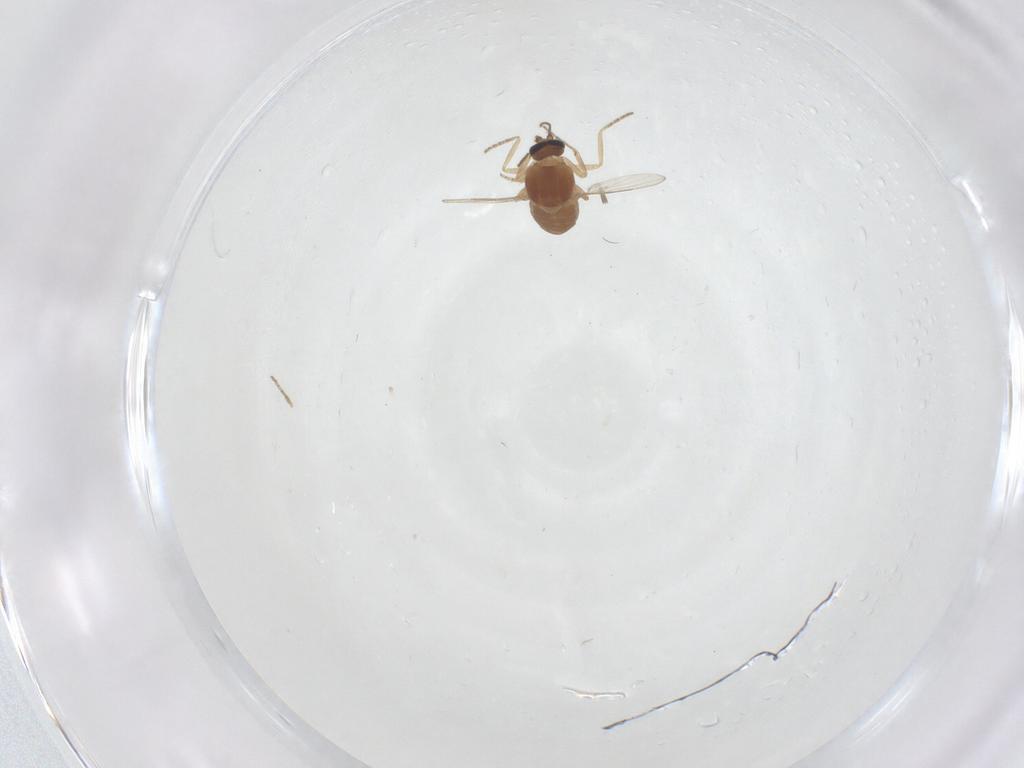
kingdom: Animalia
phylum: Arthropoda
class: Insecta
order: Diptera
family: Ceratopogonidae
